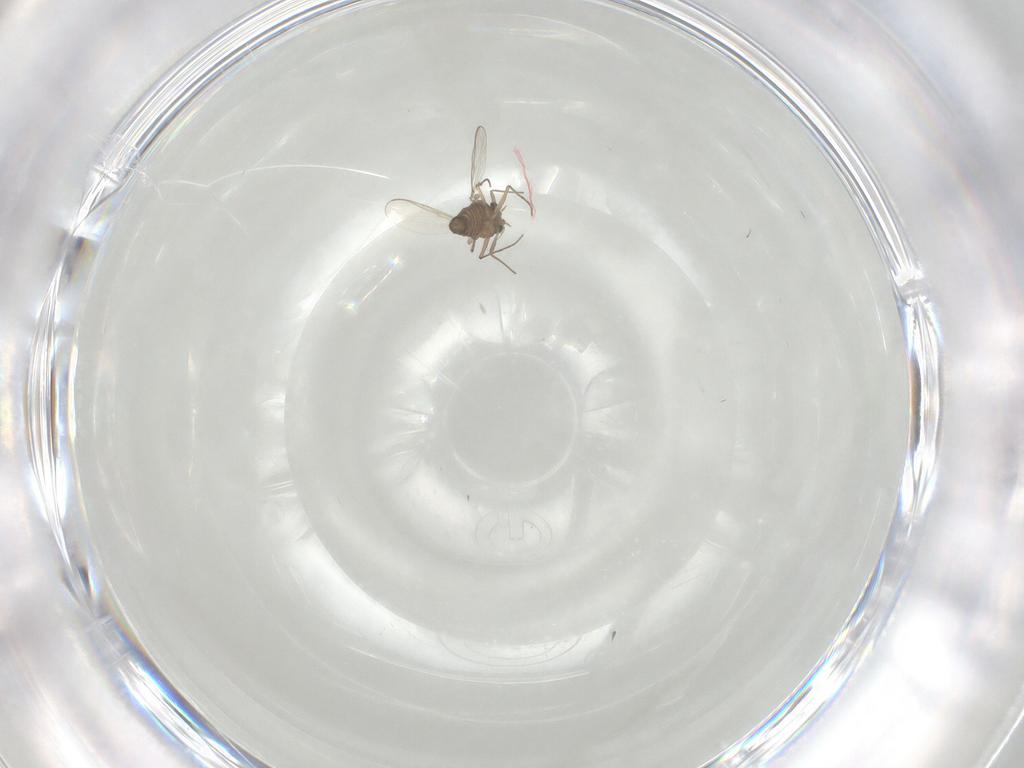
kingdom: Animalia
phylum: Arthropoda
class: Insecta
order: Diptera
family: Chironomidae
